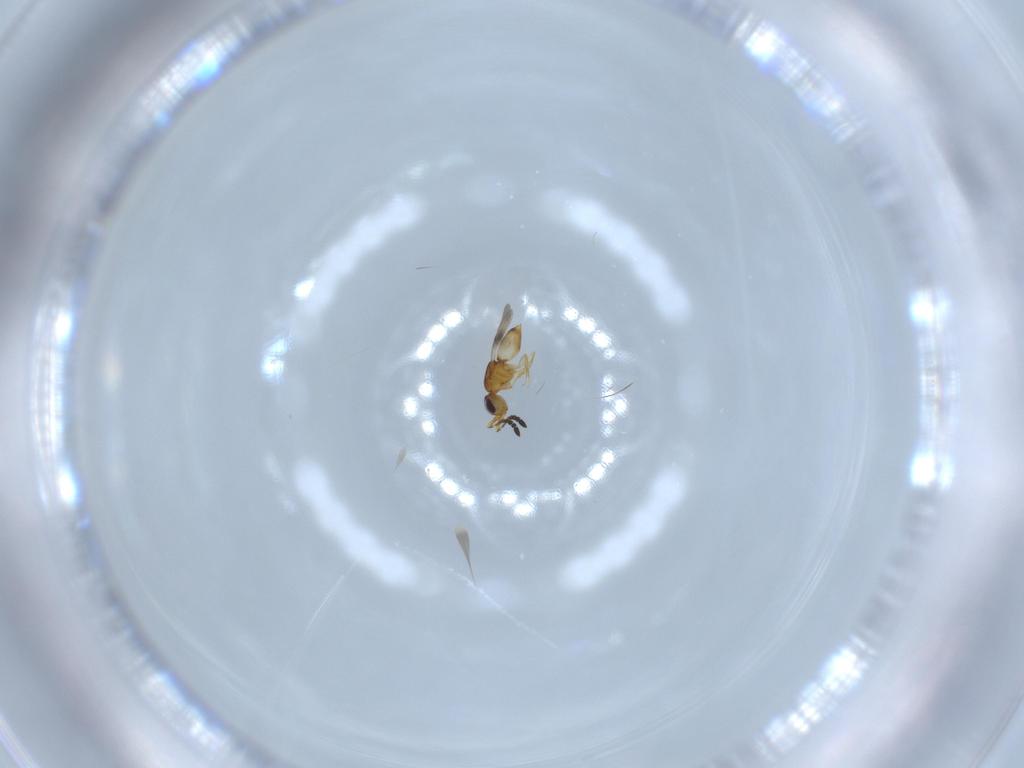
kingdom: Animalia
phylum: Arthropoda
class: Insecta
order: Hymenoptera
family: Ceraphronidae
